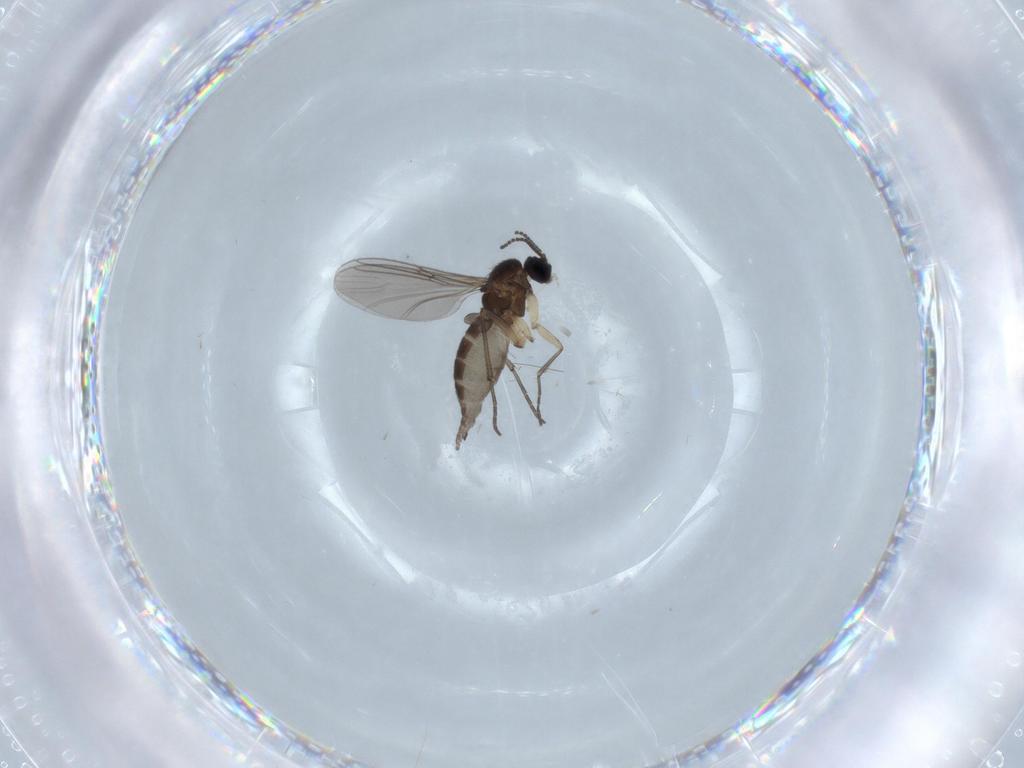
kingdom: Animalia
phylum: Arthropoda
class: Insecta
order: Diptera
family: Sciaridae
